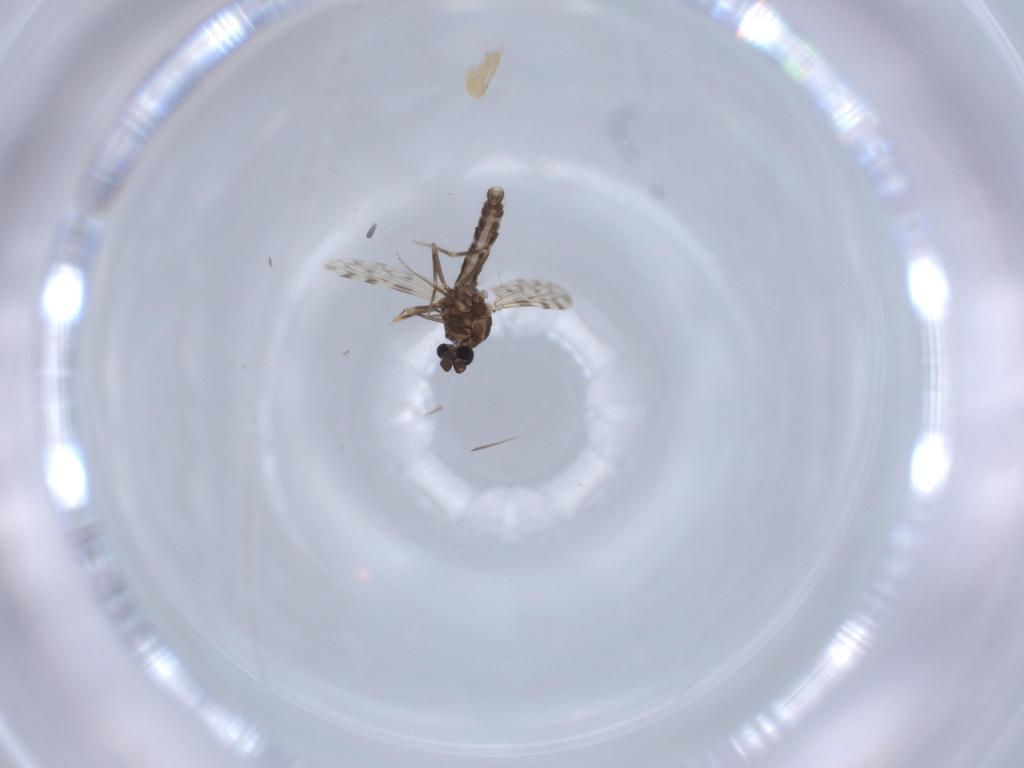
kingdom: Animalia
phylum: Arthropoda
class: Insecta
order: Diptera
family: Ceratopogonidae
